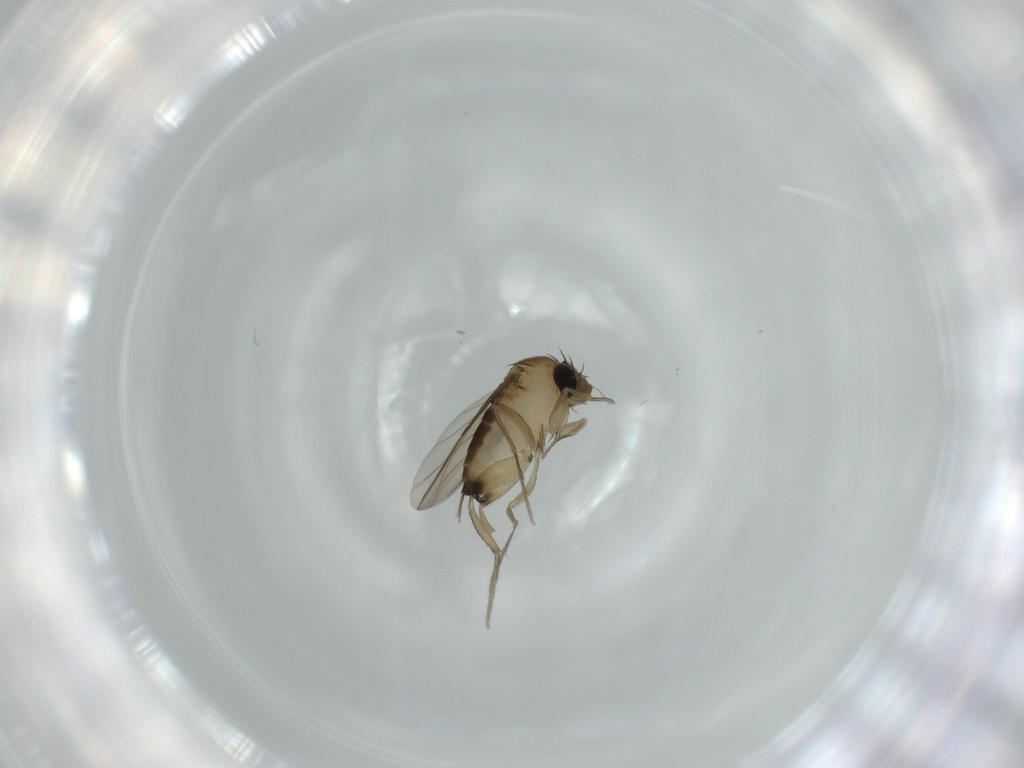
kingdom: Animalia
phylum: Arthropoda
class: Insecta
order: Diptera
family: Phoridae
